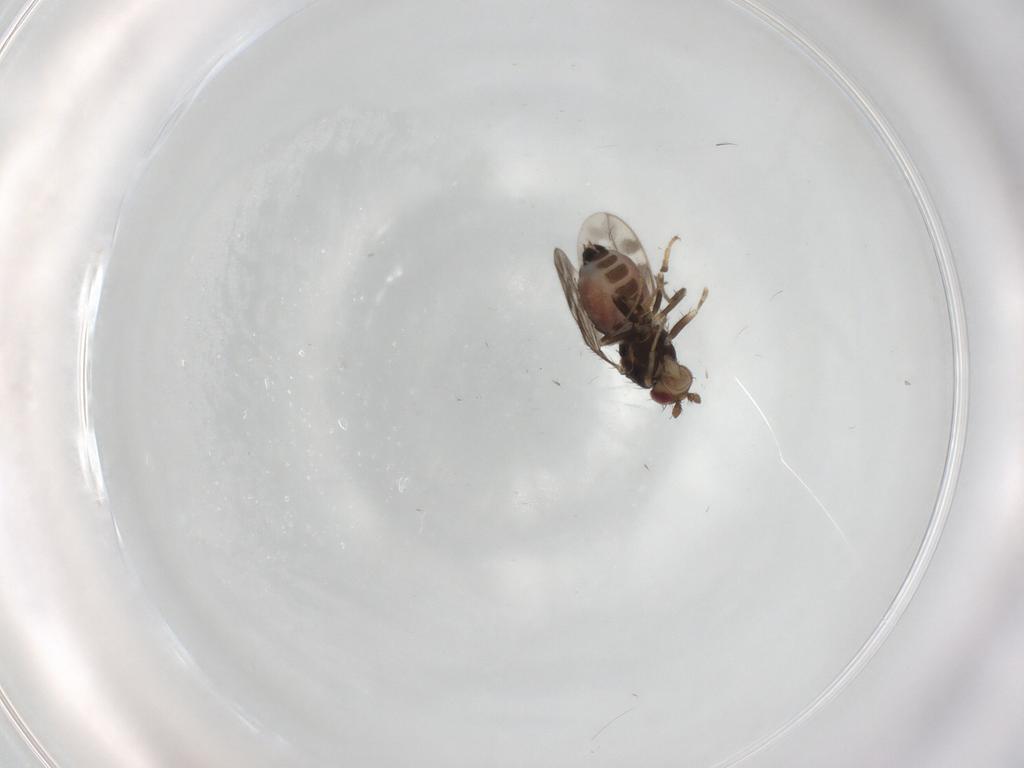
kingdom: Animalia
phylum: Arthropoda
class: Insecta
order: Diptera
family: Sphaeroceridae
